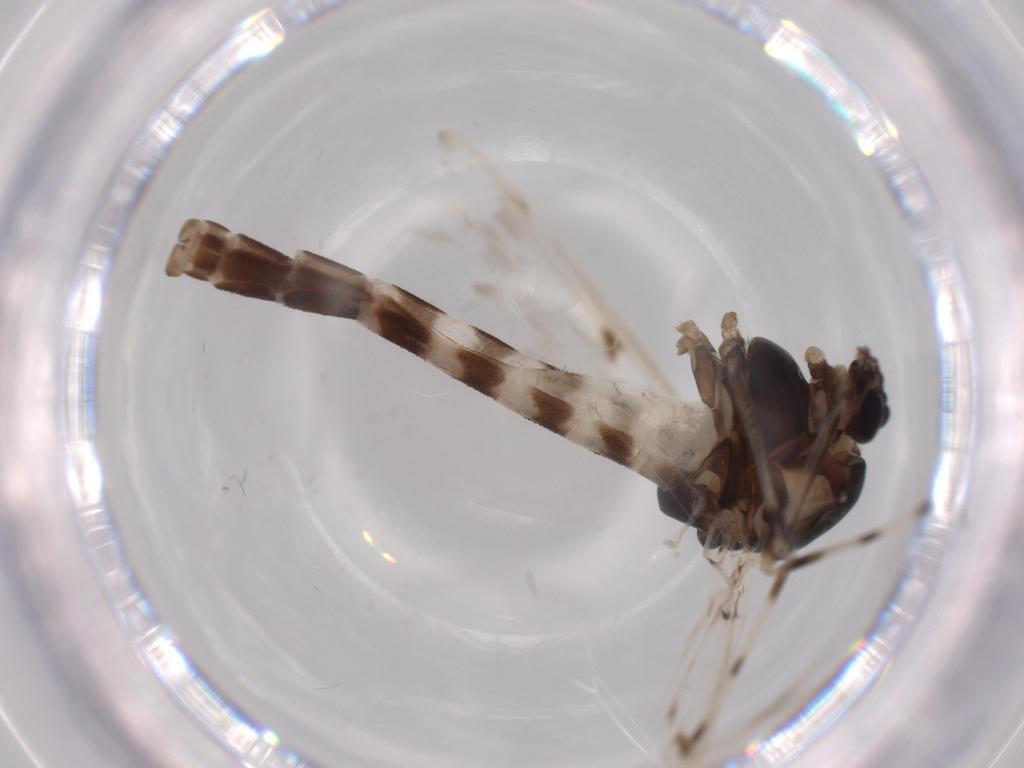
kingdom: Animalia
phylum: Arthropoda
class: Insecta
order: Diptera
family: Chironomidae
